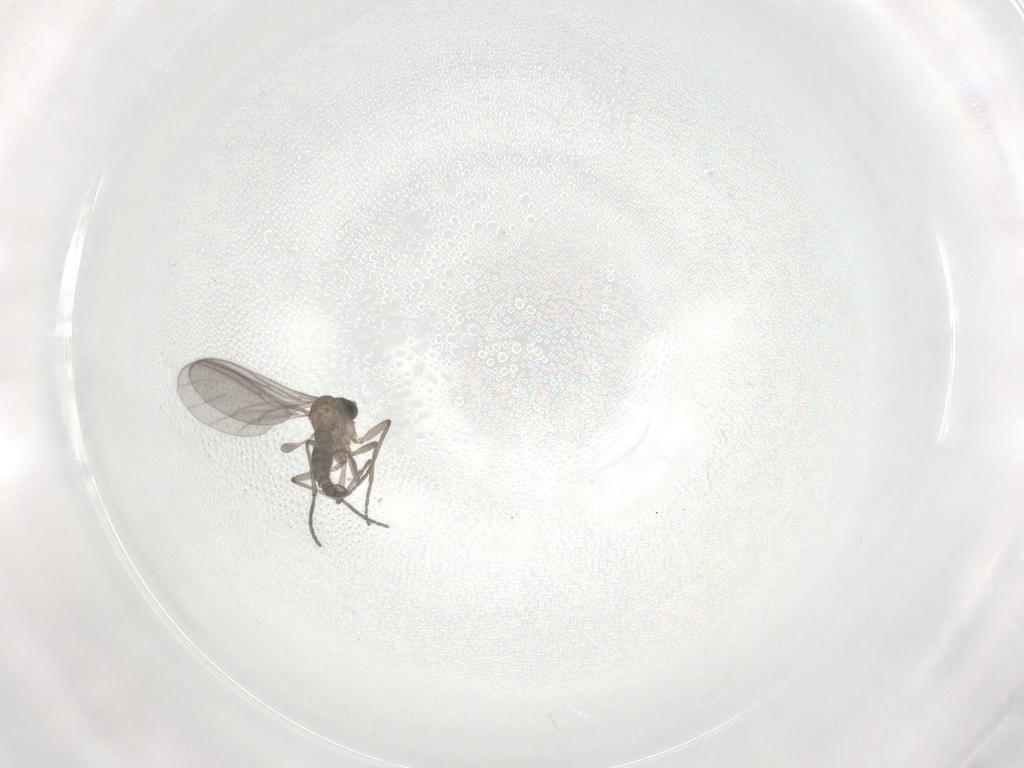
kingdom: Animalia
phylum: Arthropoda
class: Insecta
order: Diptera
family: Sciaridae
